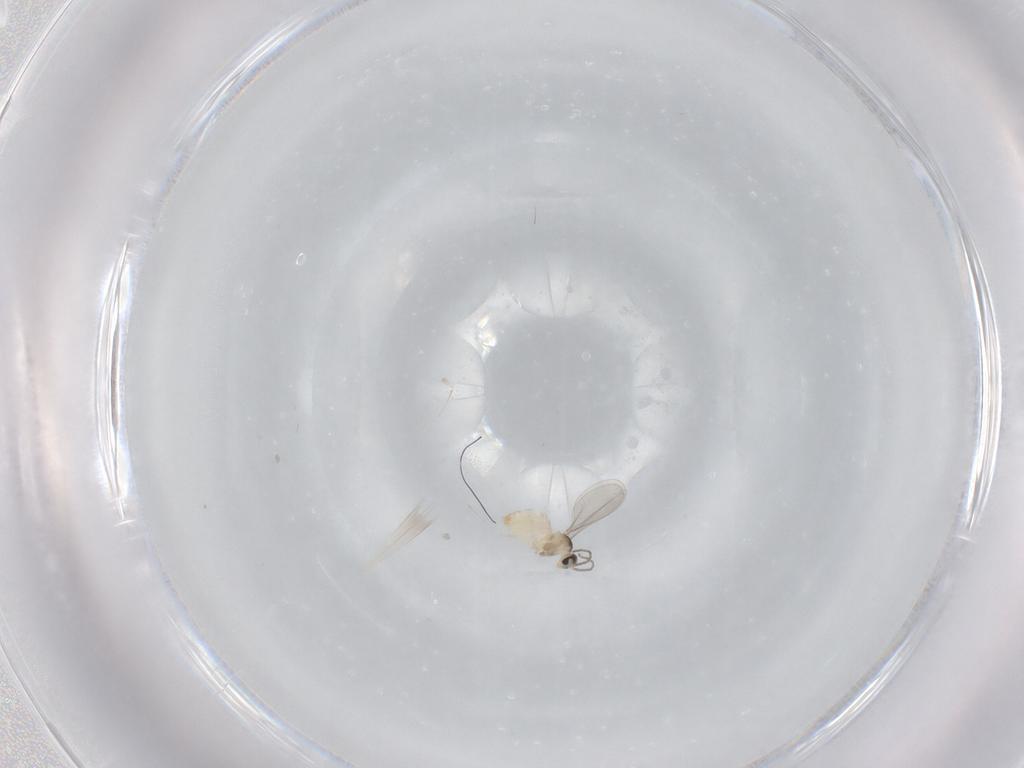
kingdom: Animalia
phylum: Arthropoda
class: Insecta
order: Diptera
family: Cecidomyiidae
